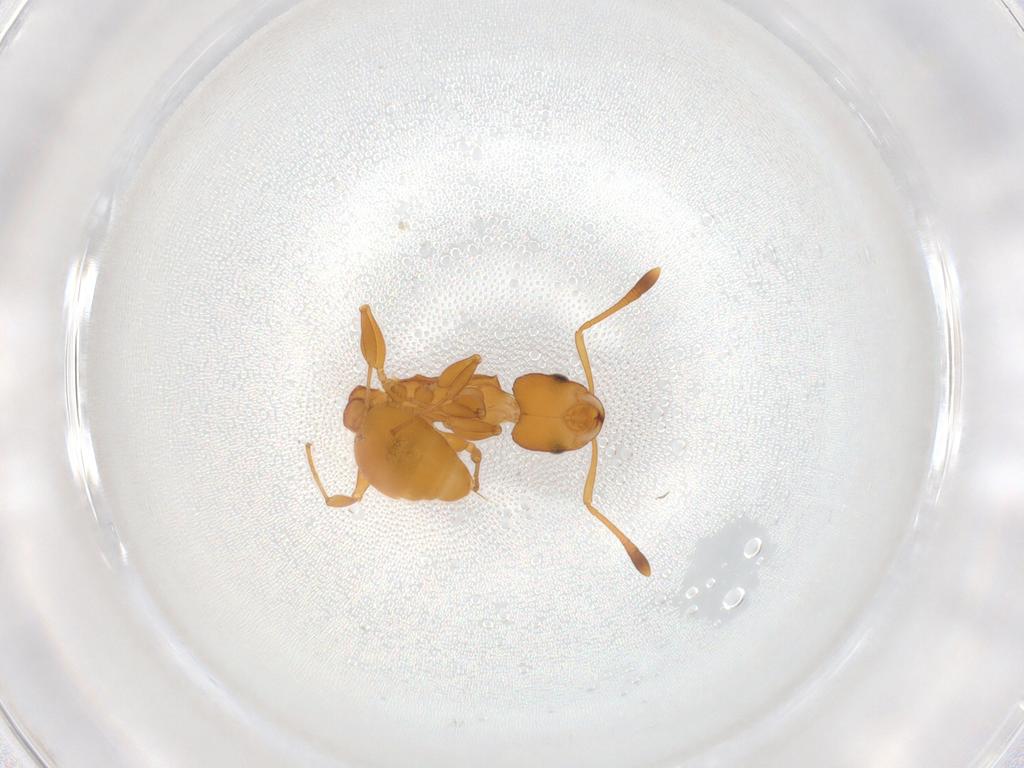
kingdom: Animalia
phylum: Arthropoda
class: Insecta
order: Hymenoptera
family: Formicidae
